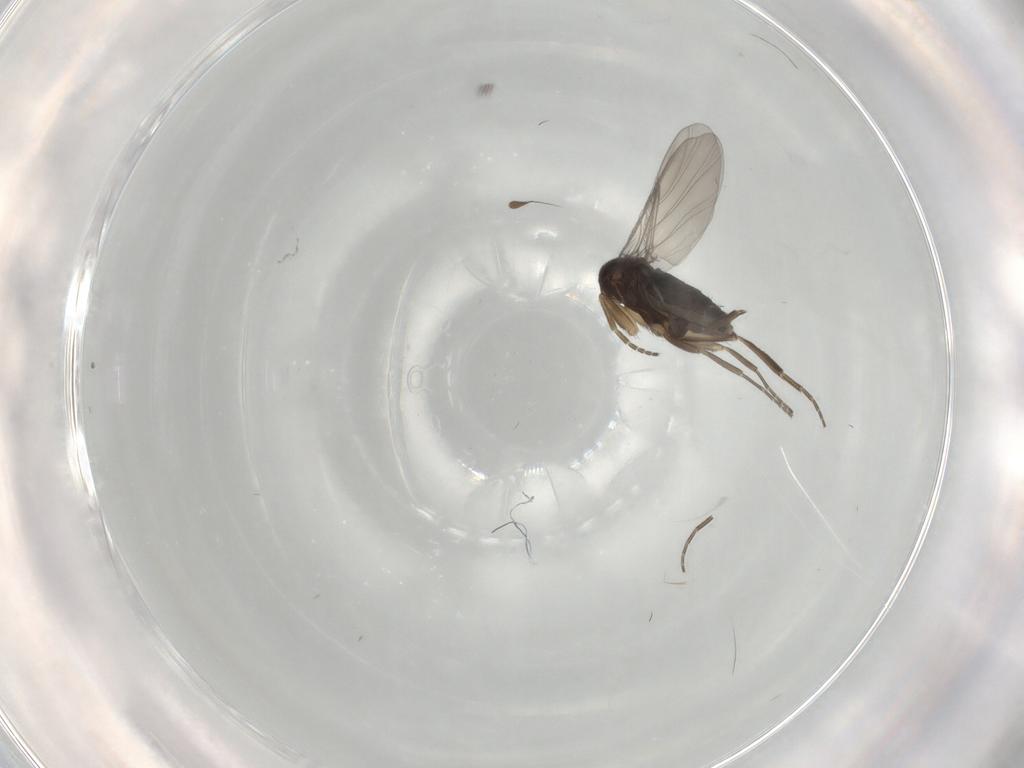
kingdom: Animalia
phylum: Arthropoda
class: Insecta
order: Diptera
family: Phoridae
